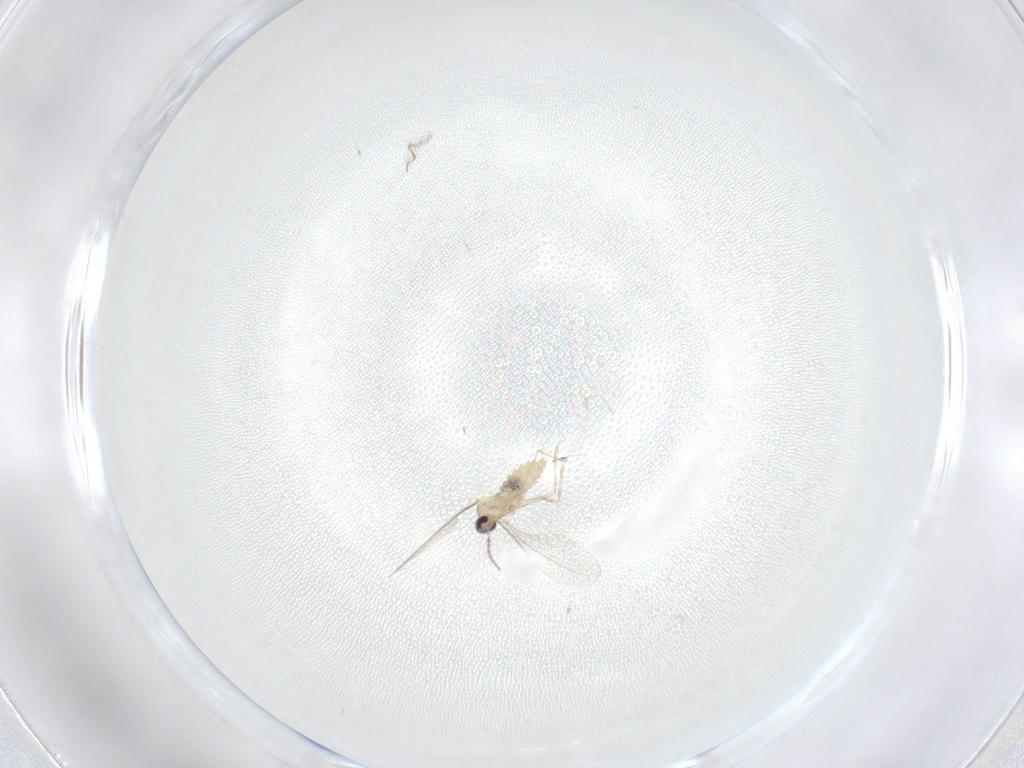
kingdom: Animalia
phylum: Arthropoda
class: Insecta
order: Diptera
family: Cecidomyiidae
